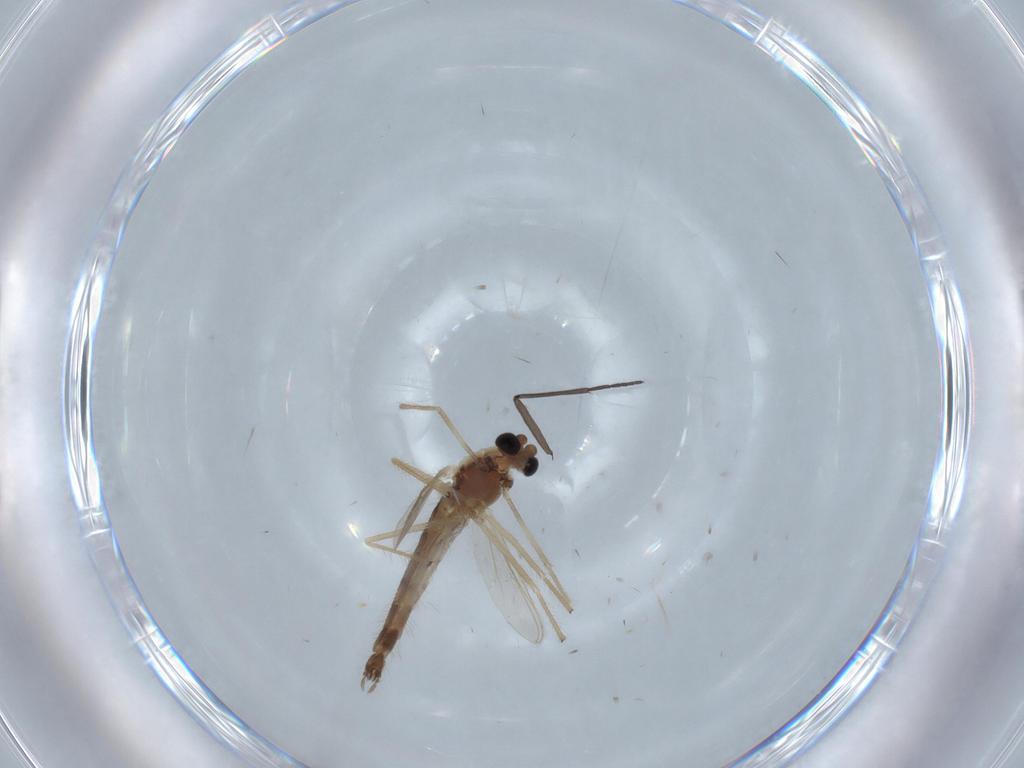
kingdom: Animalia
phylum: Arthropoda
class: Insecta
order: Diptera
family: Chironomidae
